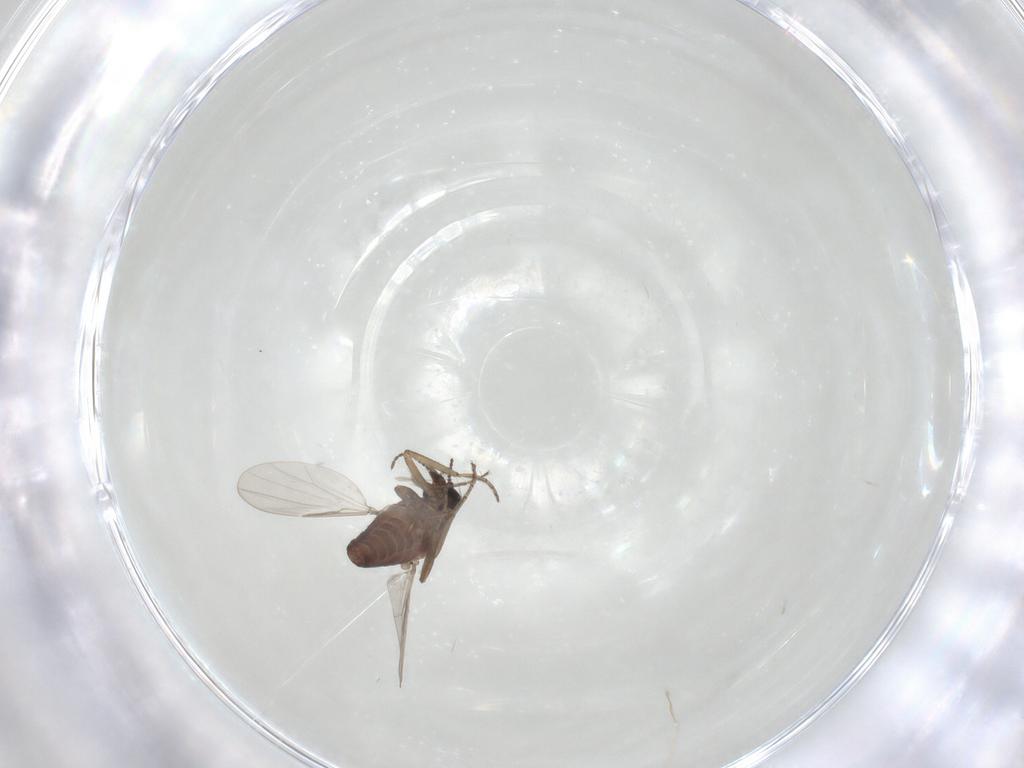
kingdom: Animalia
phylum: Arthropoda
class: Insecta
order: Diptera
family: Ceratopogonidae
